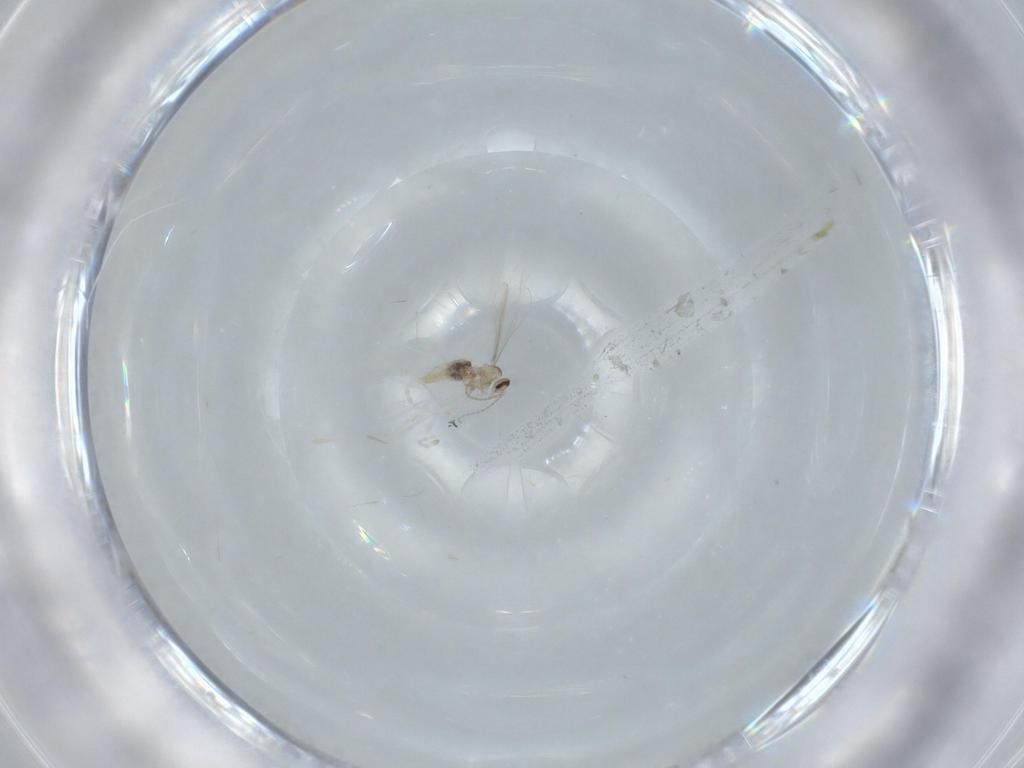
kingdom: Animalia
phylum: Arthropoda
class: Insecta
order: Diptera
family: Cecidomyiidae
